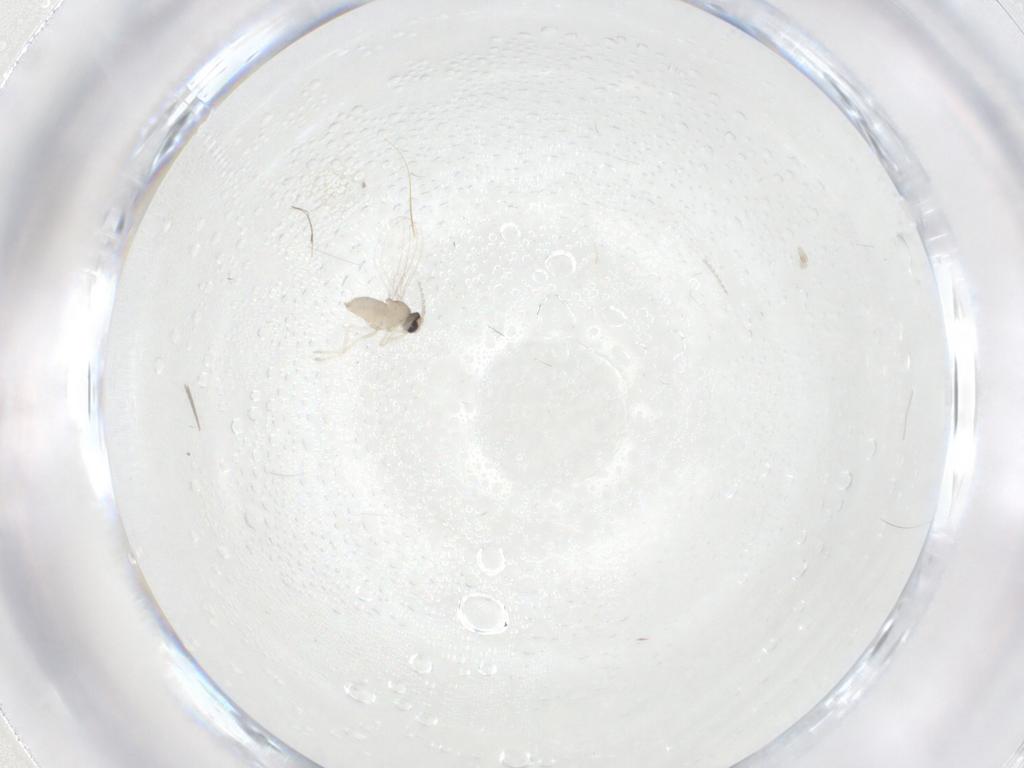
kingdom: Animalia
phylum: Arthropoda
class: Insecta
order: Diptera
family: Cecidomyiidae
